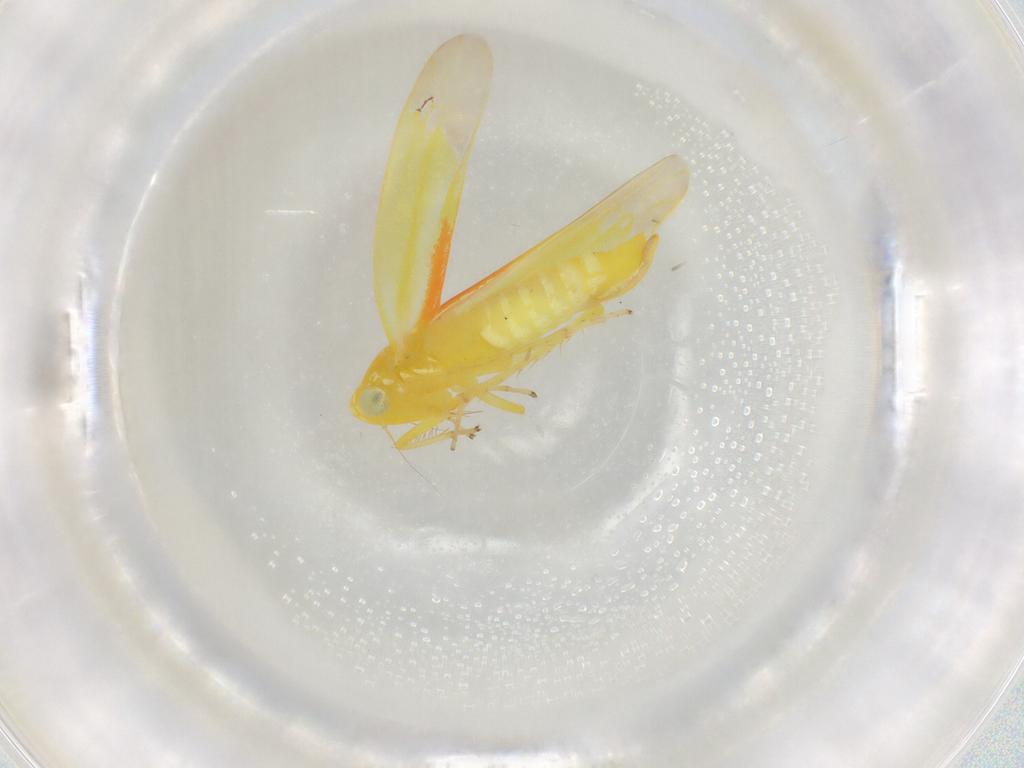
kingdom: Animalia
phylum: Arthropoda
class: Insecta
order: Hemiptera
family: Cicadellidae
